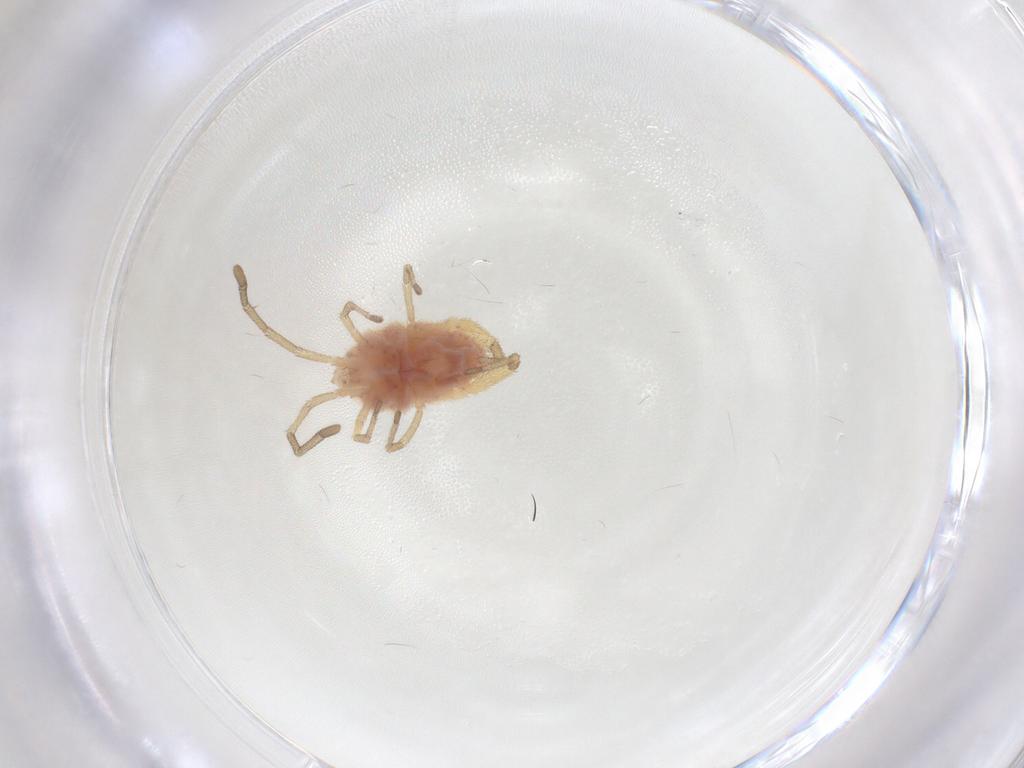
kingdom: Animalia
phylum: Arthropoda
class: Arachnida
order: Trombidiformes
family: Smarididae
